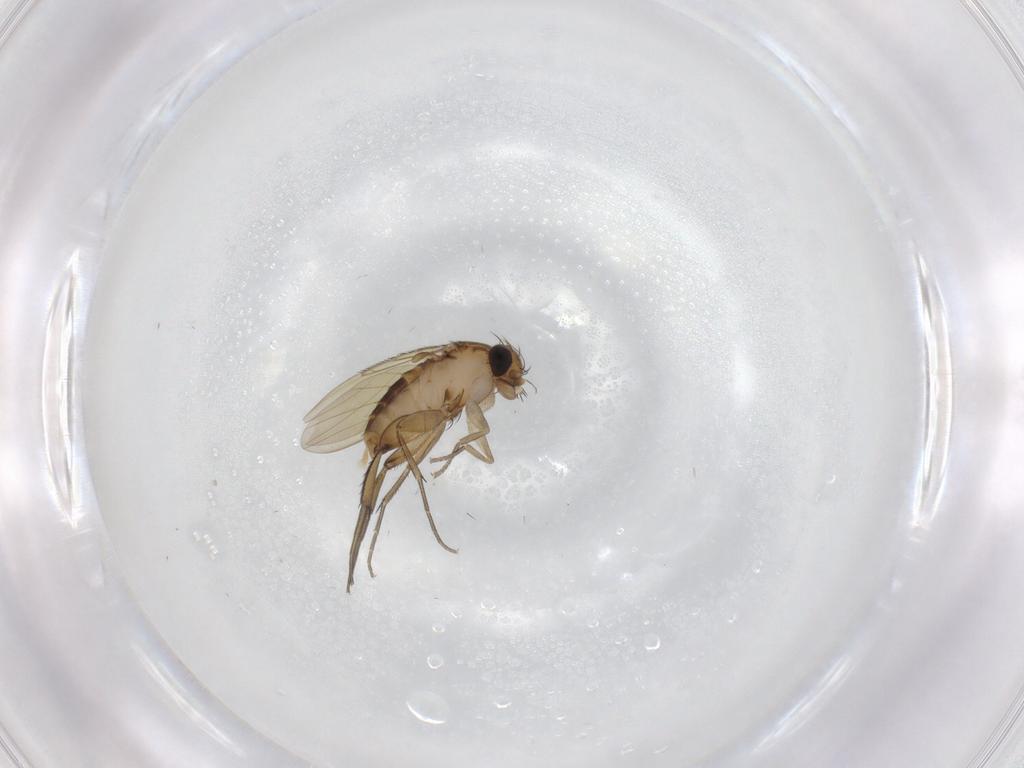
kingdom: Animalia
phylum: Arthropoda
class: Insecta
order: Diptera
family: Phoridae
